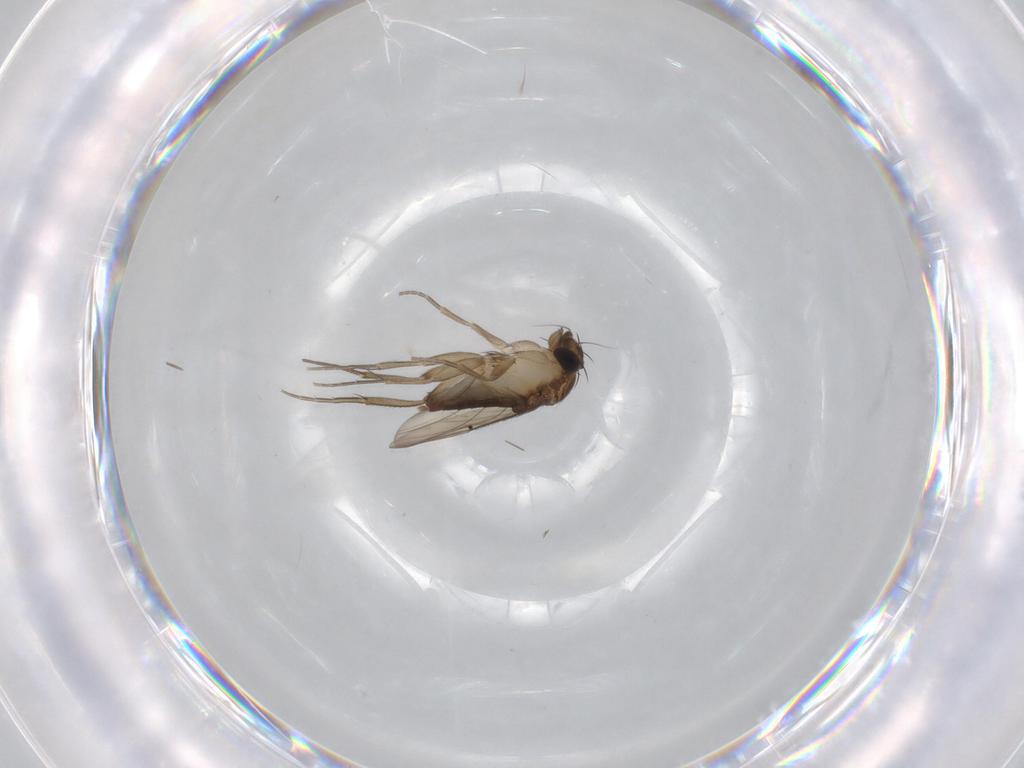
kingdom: Animalia
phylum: Arthropoda
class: Insecta
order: Diptera
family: Phoridae
